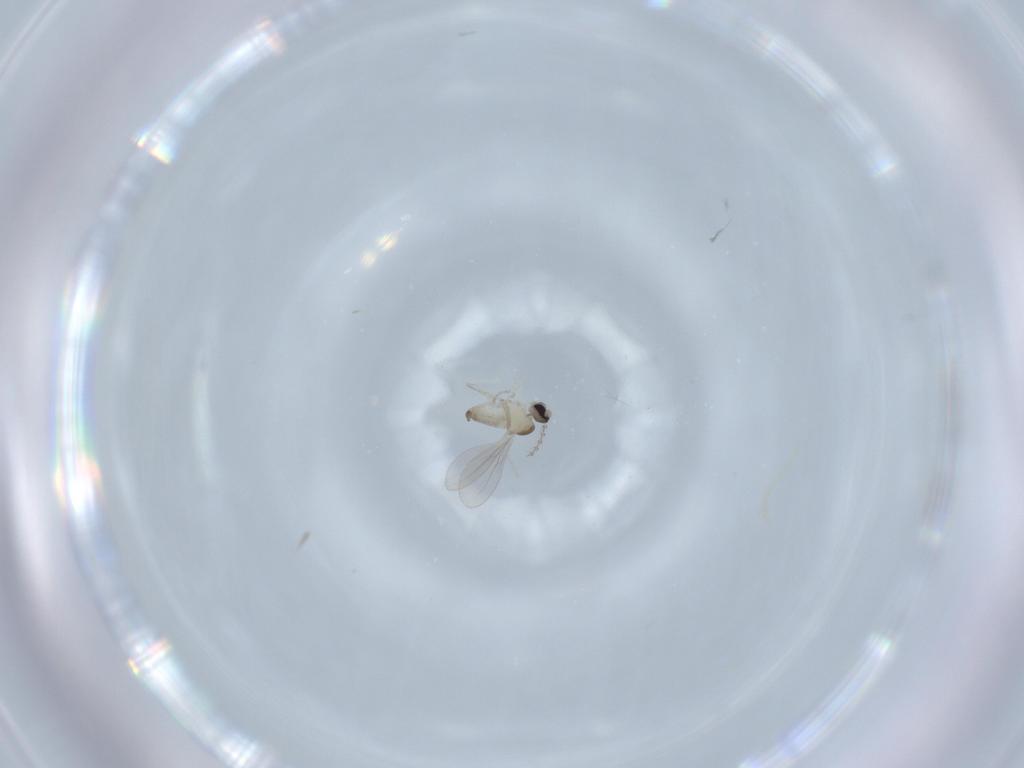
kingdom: Animalia
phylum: Arthropoda
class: Insecta
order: Diptera
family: Cecidomyiidae
